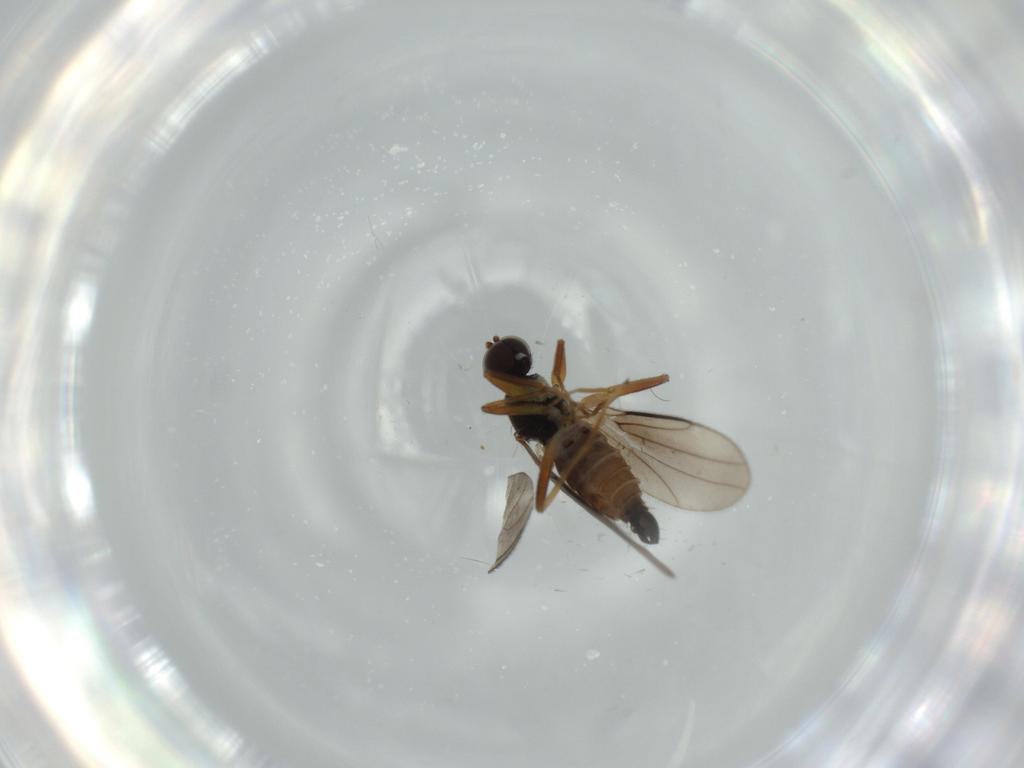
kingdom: Animalia
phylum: Arthropoda
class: Insecta
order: Diptera
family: Hybotidae
